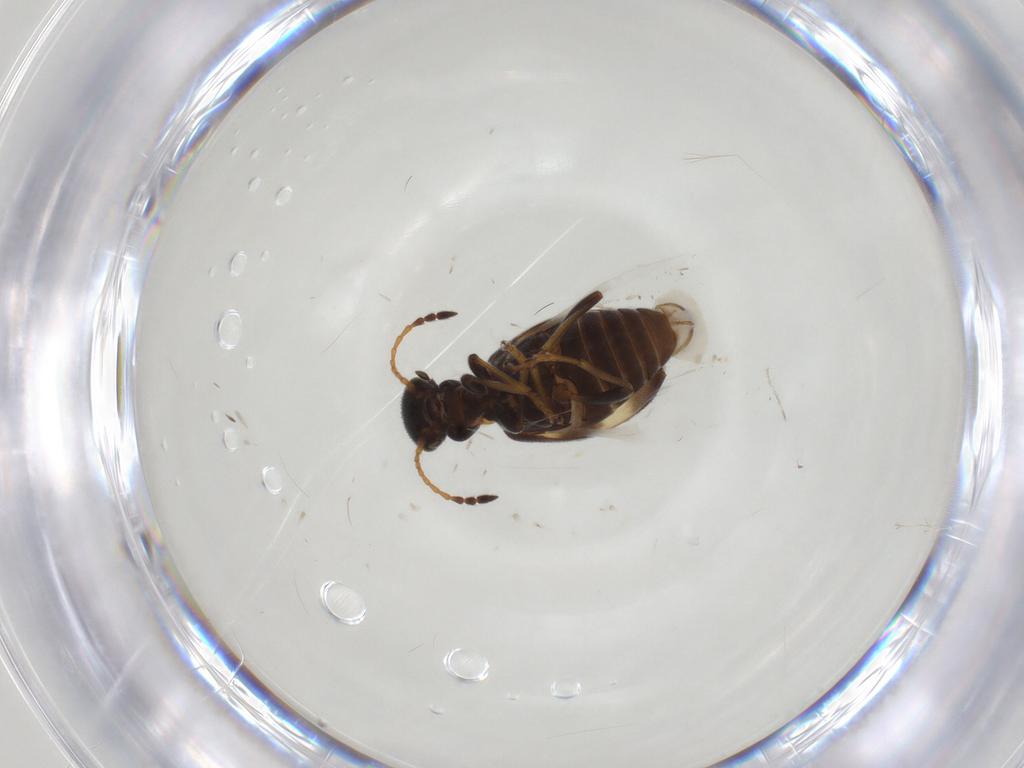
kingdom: Animalia
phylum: Arthropoda
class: Insecta
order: Coleoptera
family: Anthicidae
